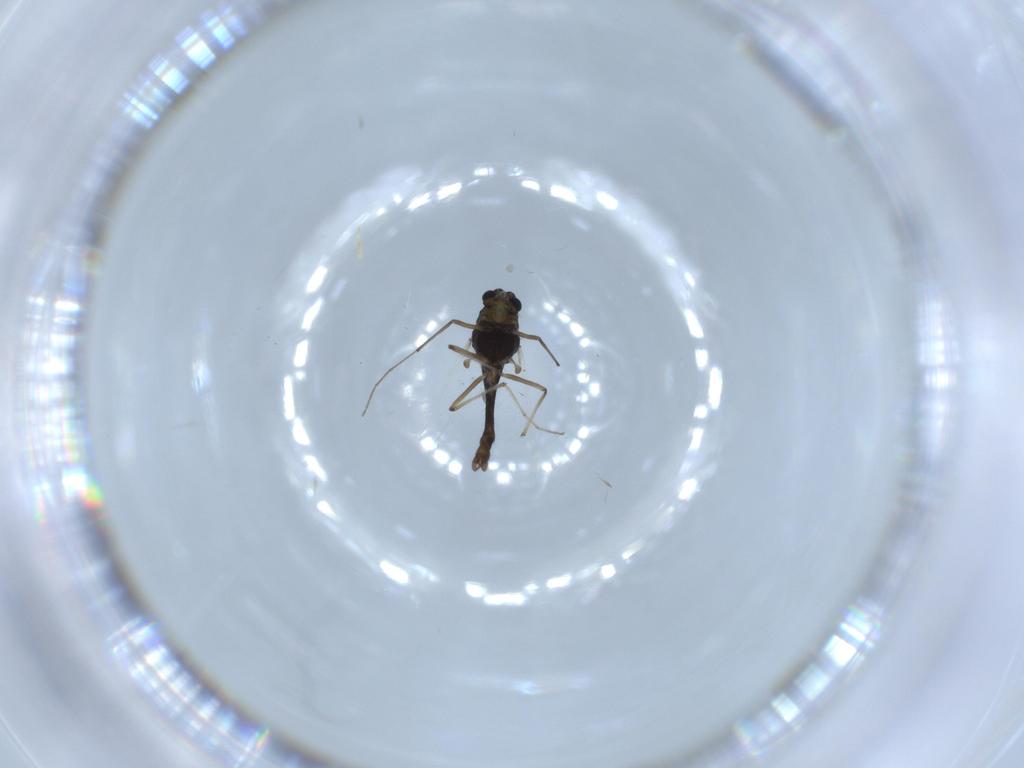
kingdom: Animalia
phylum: Arthropoda
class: Insecta
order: Diptera
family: Chironomidae
